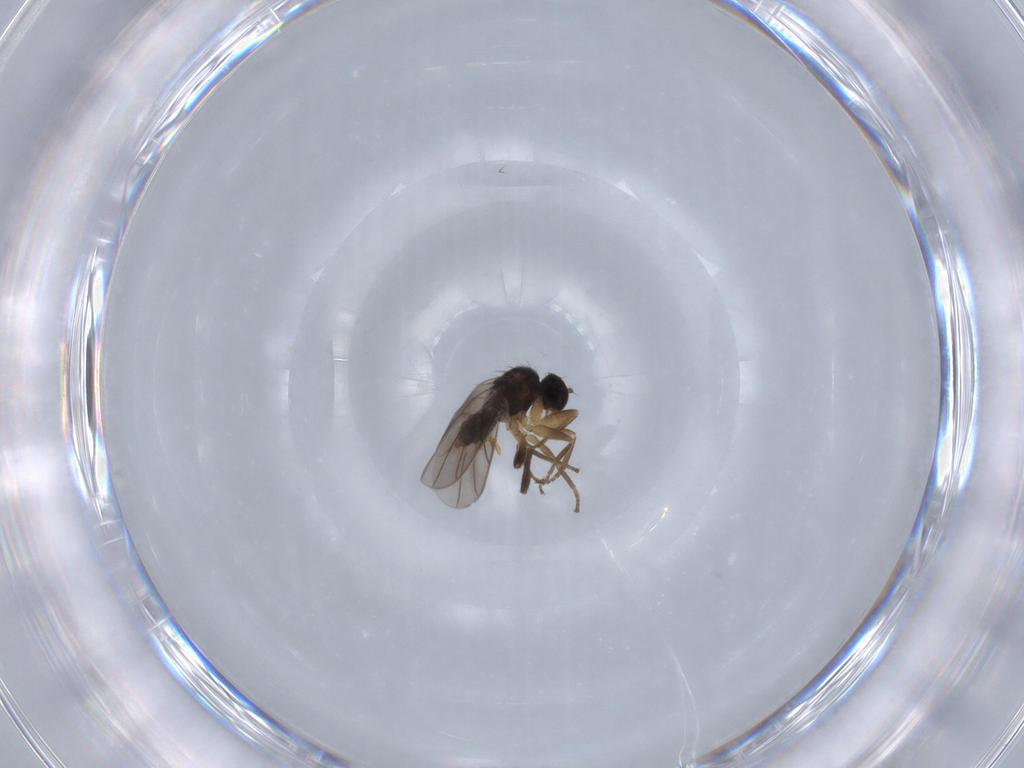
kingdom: Animalia
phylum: Arthropoda
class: Insecta
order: Diptera
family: Hybotidae
